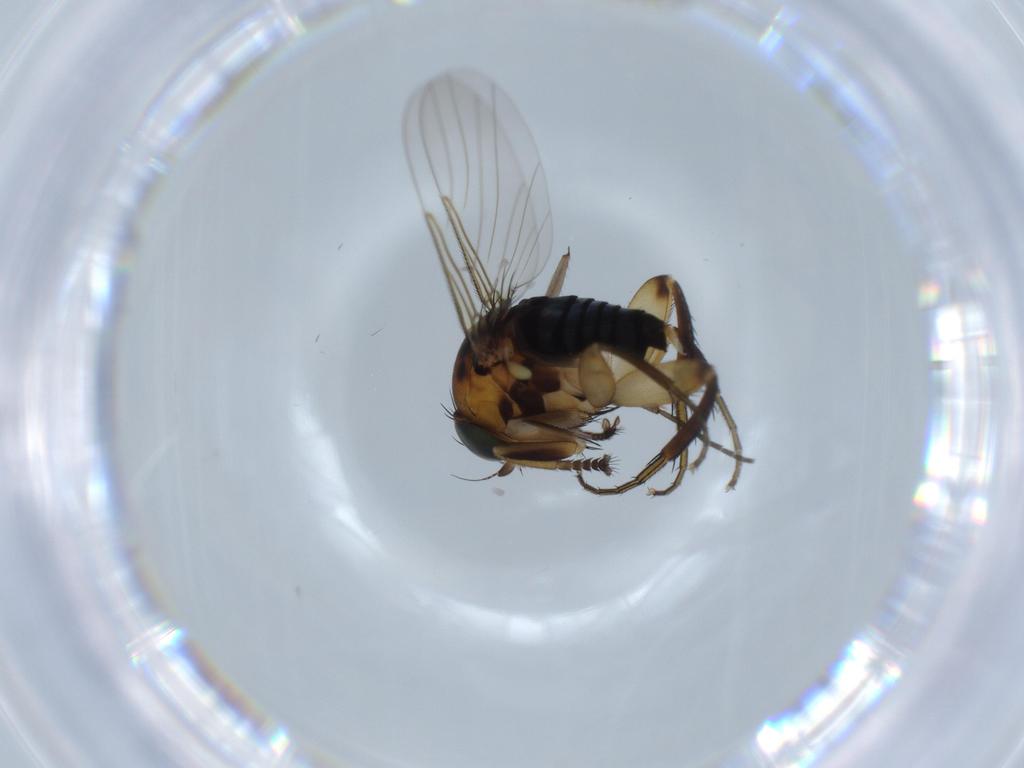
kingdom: Animalia
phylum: Arthropoda
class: Insecta
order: Diptera
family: Phoridae
